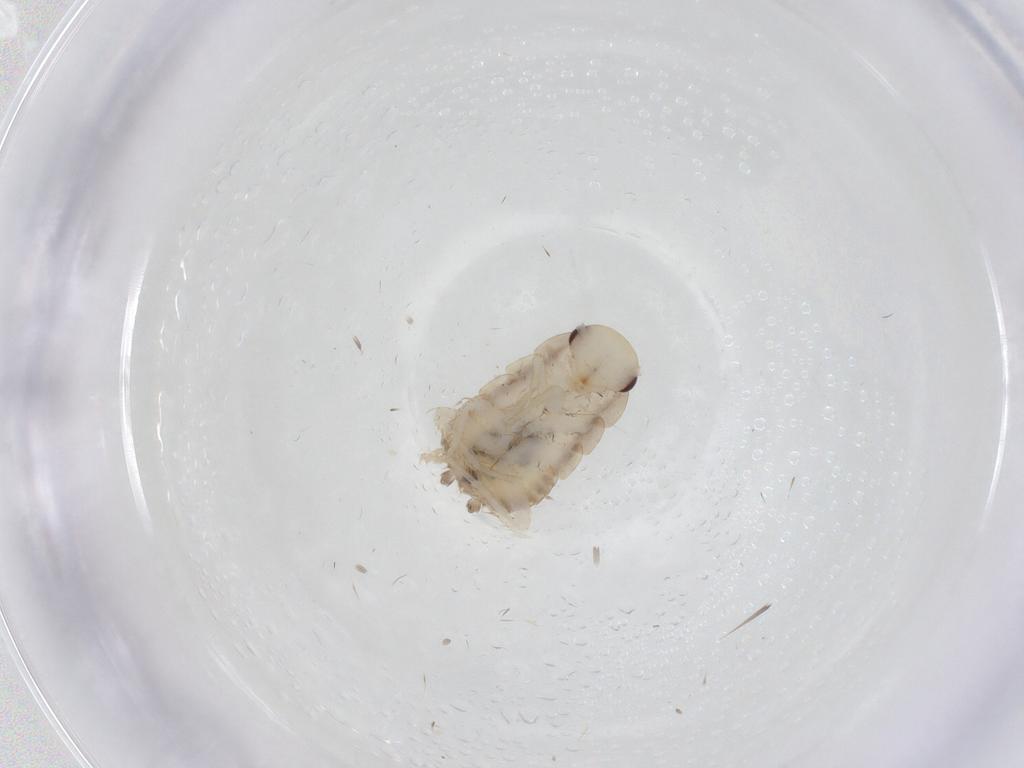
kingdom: Animalia
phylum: Arthropoda
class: Insecta
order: Blattodea
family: Ectobiidae
